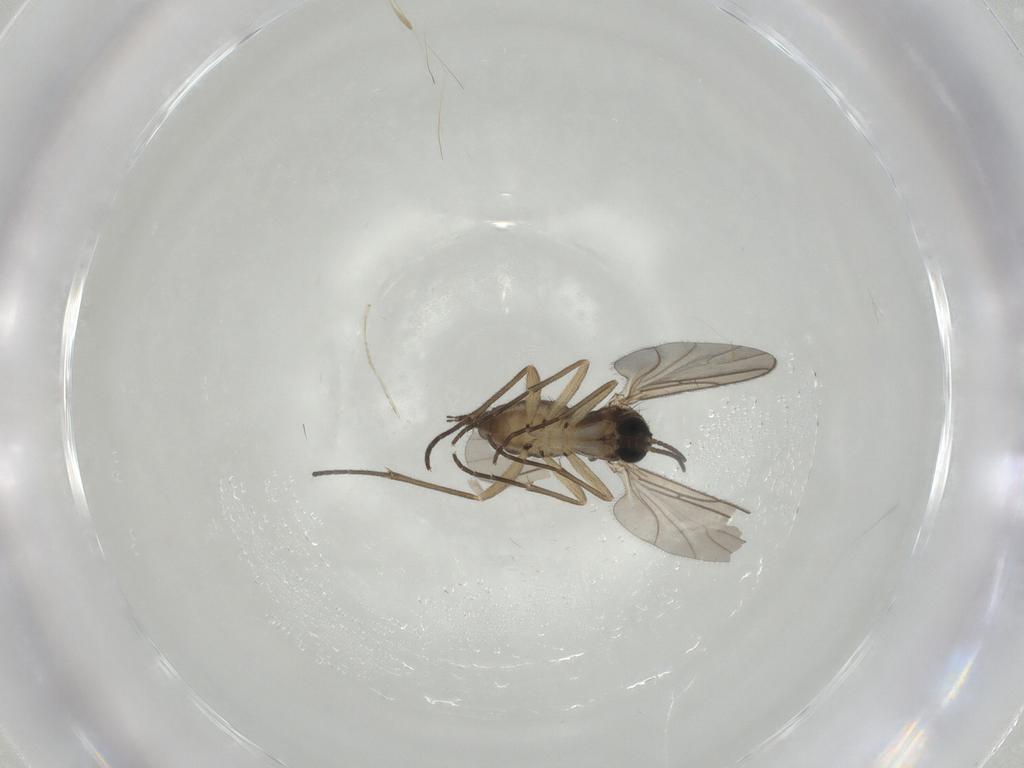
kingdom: Animalia
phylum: Arthropoda
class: Insecta
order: Diptera
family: Sciaridae
